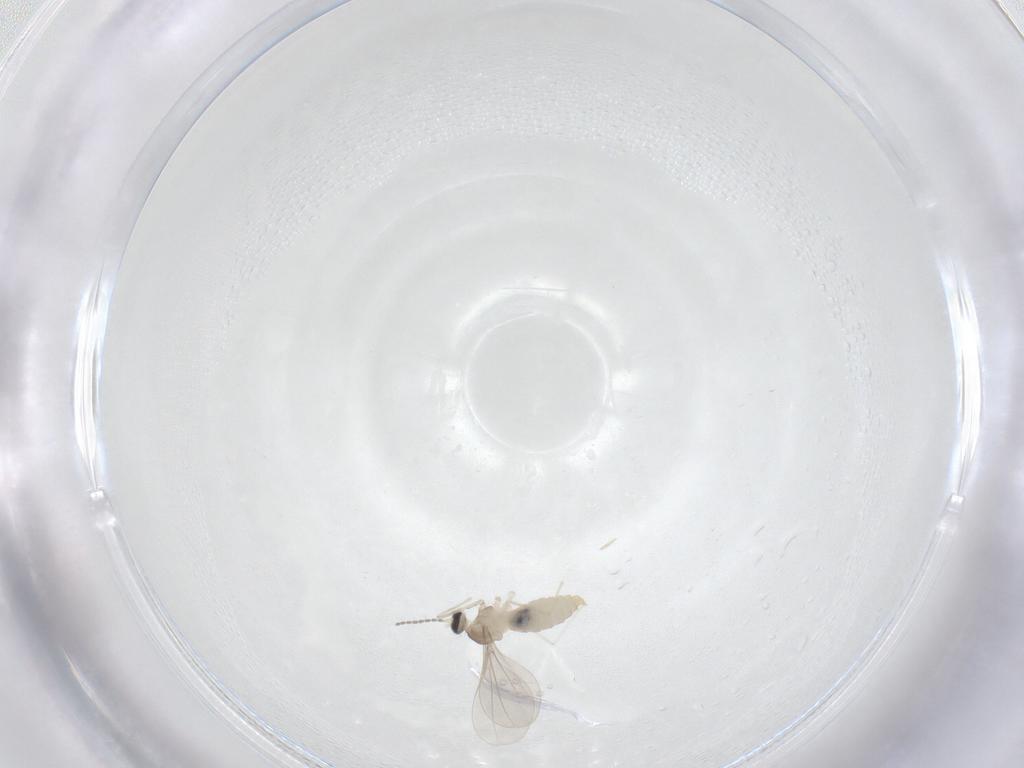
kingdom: Animalia
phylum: Arthropoda
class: Insecta
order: Diptera
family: Cecidomyiidae
